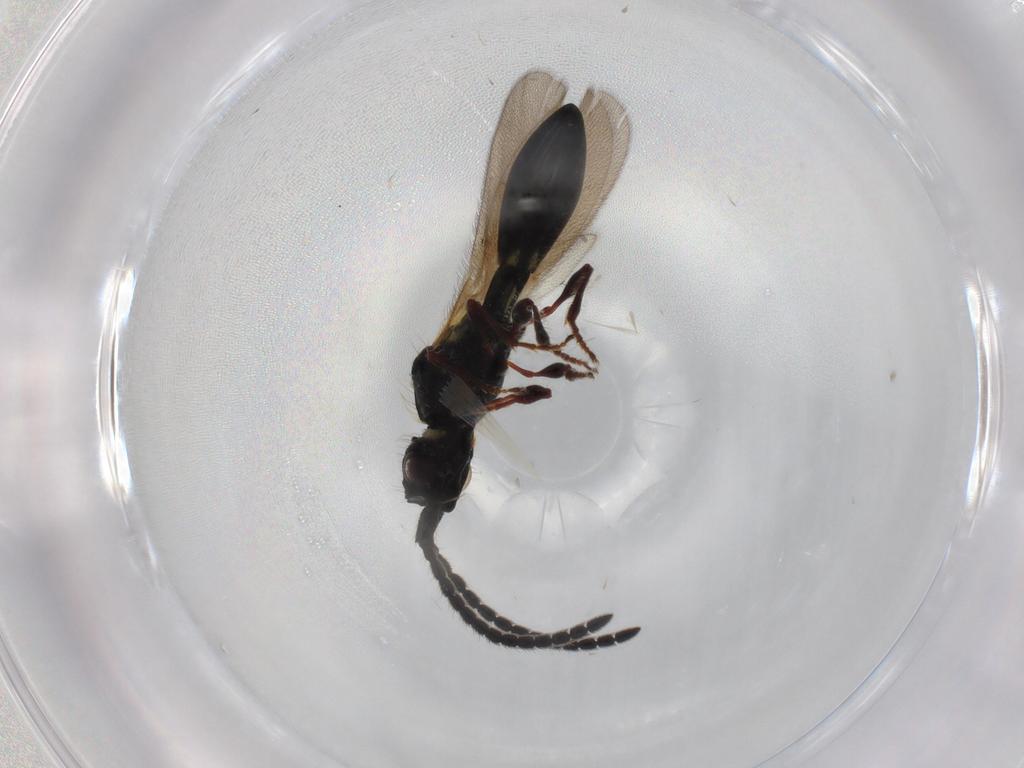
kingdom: Animalia
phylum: Arthropoda
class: Insecta
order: Hymenoptera
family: Diapriidae
